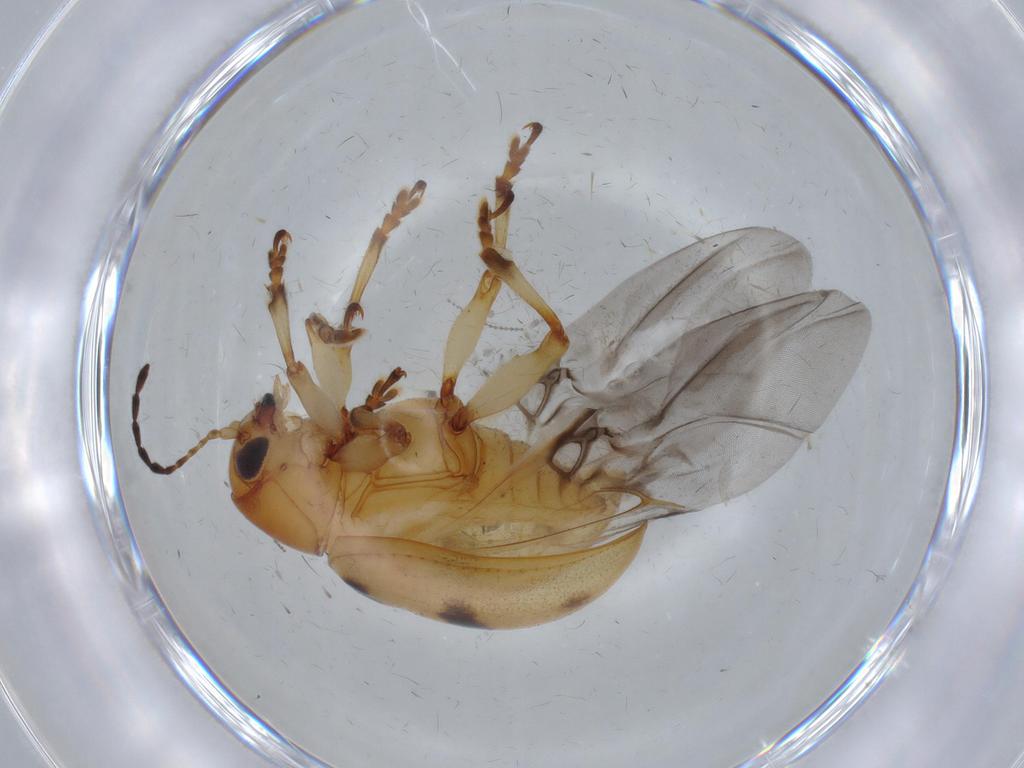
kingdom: Animalia
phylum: Arthropoda
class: Insecta
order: Coleoptera
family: Chrysomelidae
